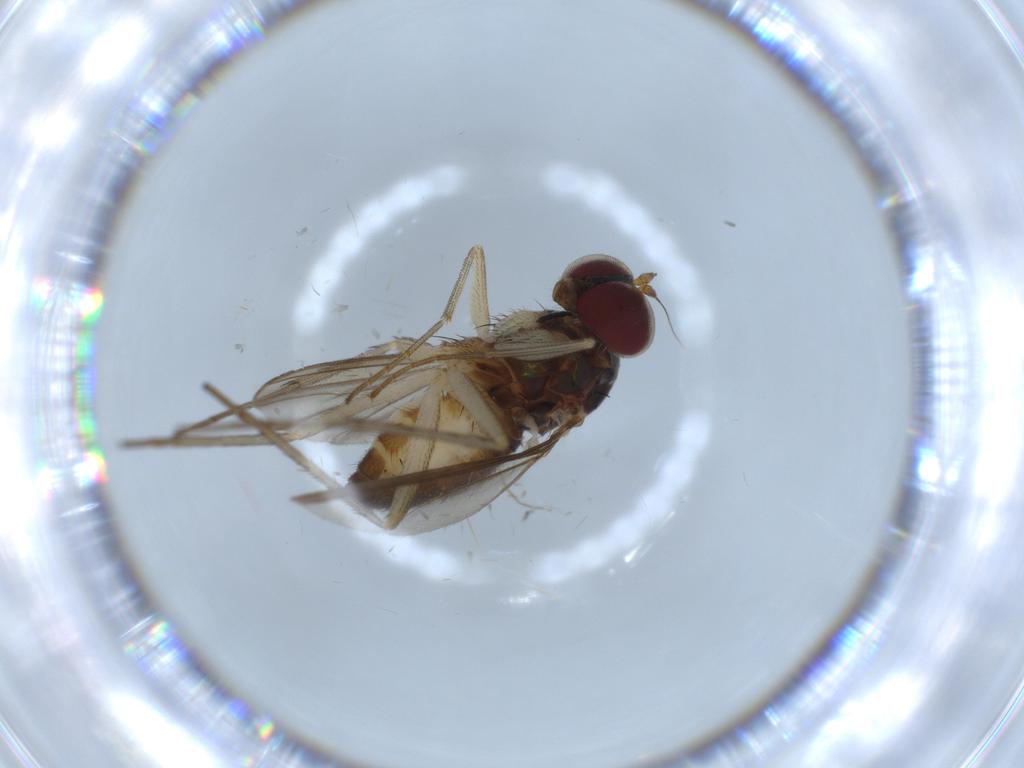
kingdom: Animalia
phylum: Arthropoda
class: Insecta
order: Diptera
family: Dolichopodidae
